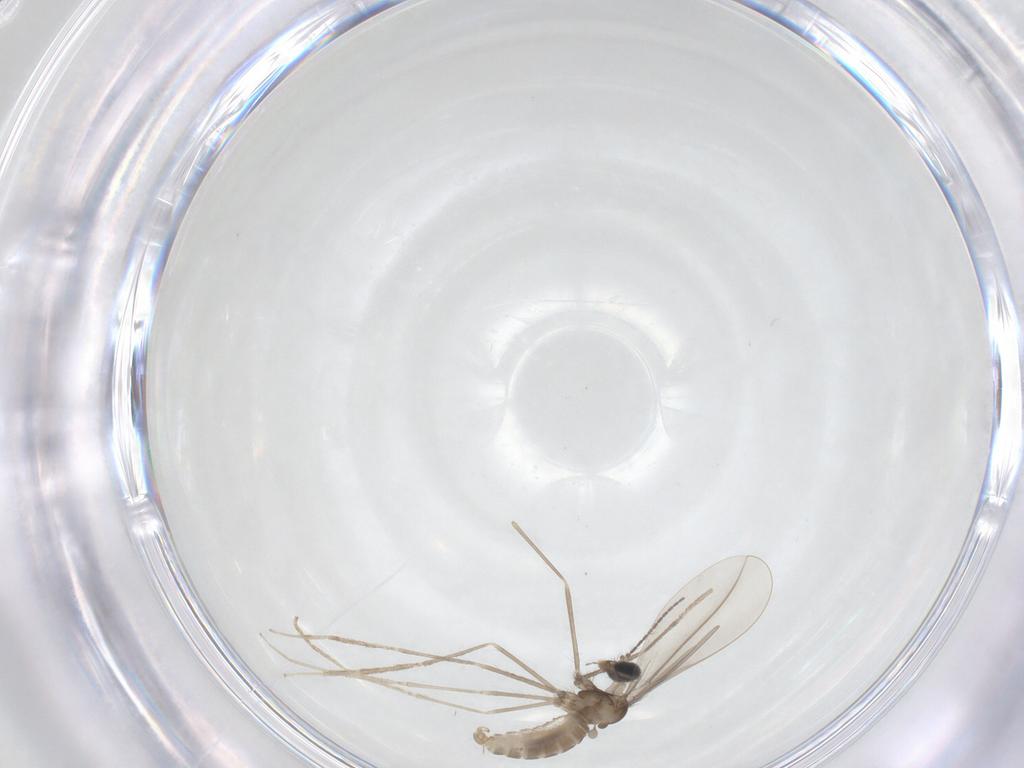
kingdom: Animalia
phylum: Arthropoda
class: Insecta
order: Diptera
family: Cecidomyiidae
